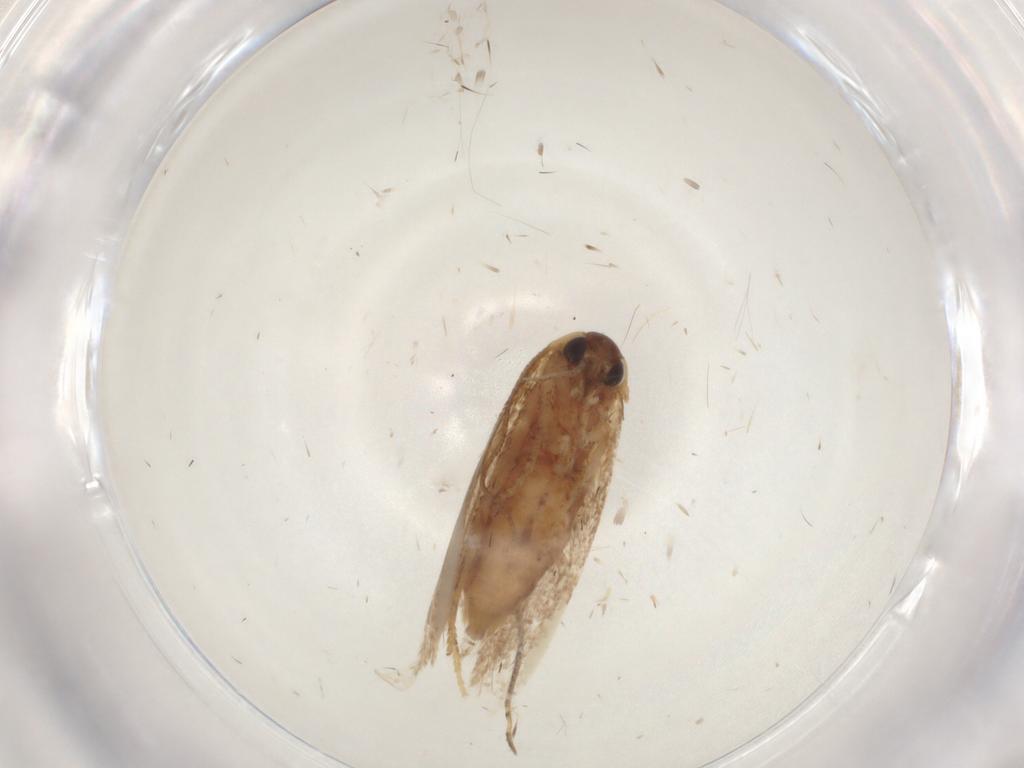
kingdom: Animalia
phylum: Arthropoda
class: Insecta
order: Lepidoptera
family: Blastobasidae
